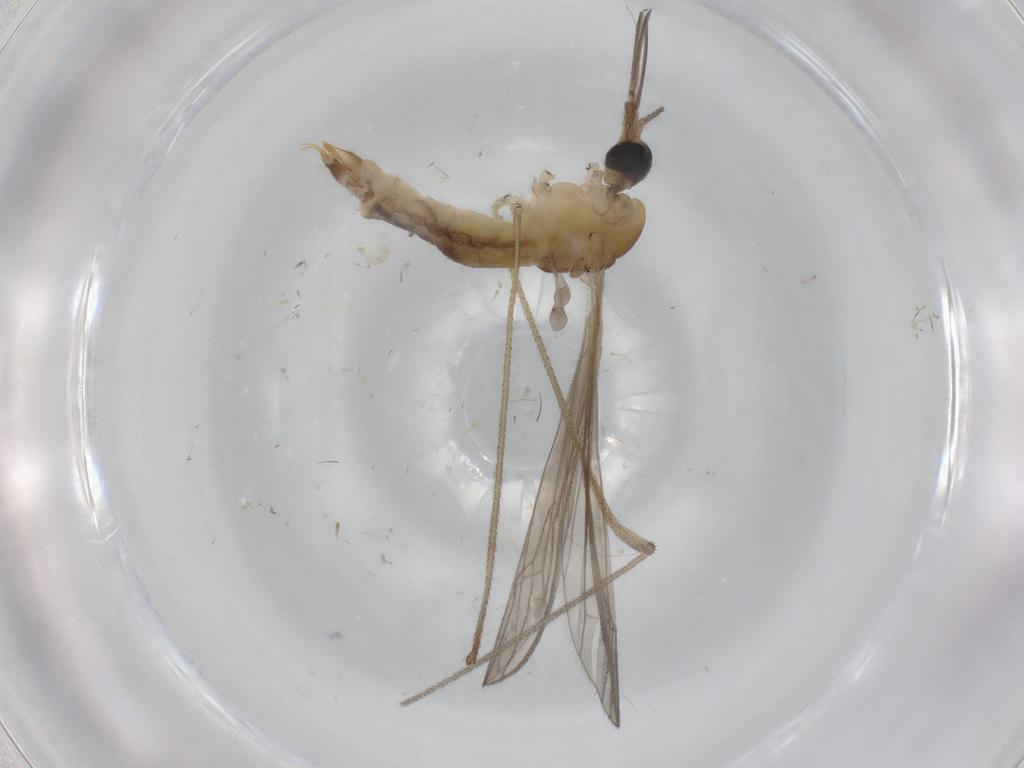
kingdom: Animalia
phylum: Arthropoda
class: Insecta
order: Diptera
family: Limoniidae
